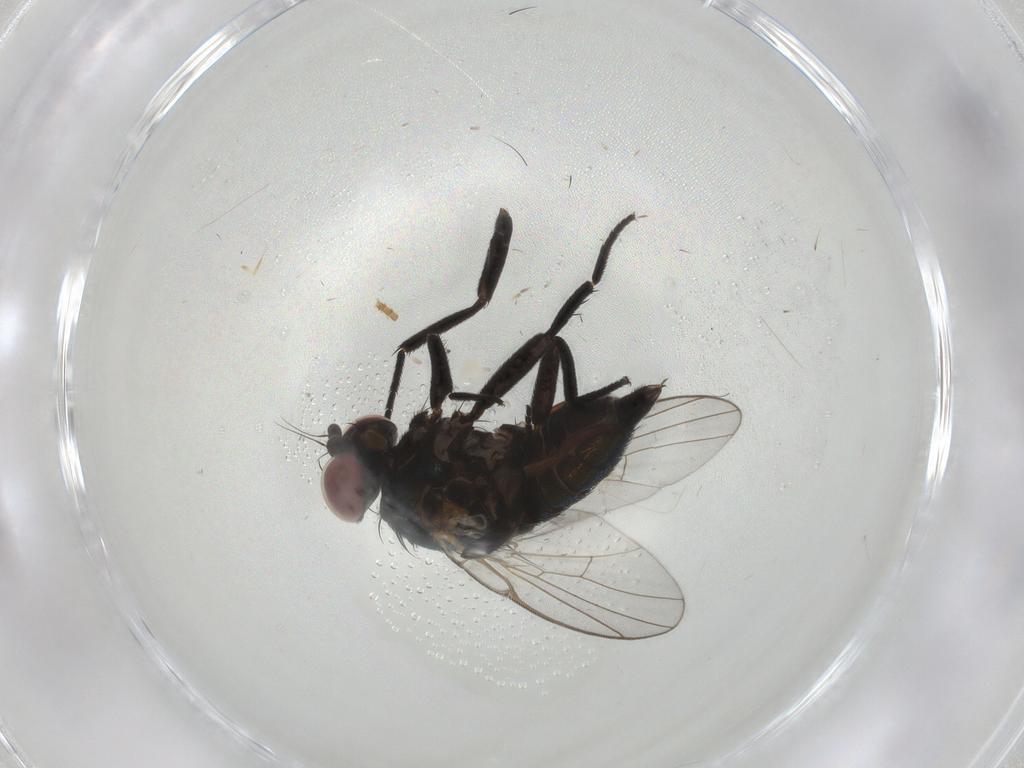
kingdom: Animalia
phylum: Arthropoda
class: Insecta
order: Diptera
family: Agromyzidae
